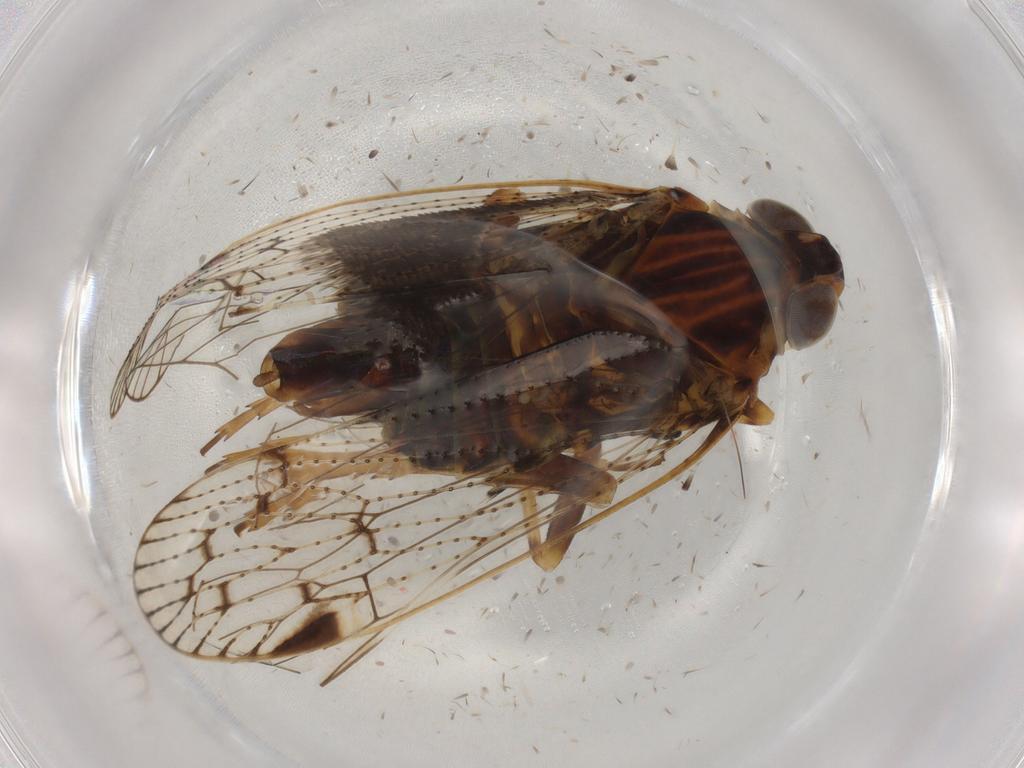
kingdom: Animalia
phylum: Arthropoda
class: Insecta
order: Hemiptera
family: Cixiidae
